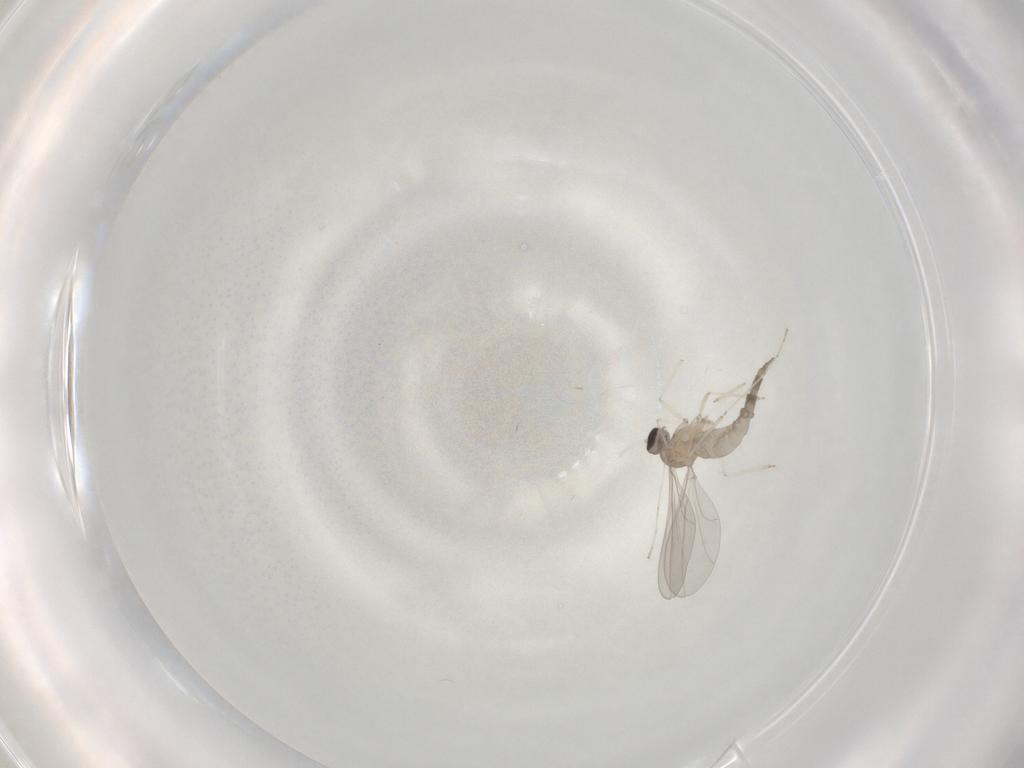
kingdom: Animalia
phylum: Arthropoda
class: Insecta
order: Diptera
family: Cecidomyiidae
